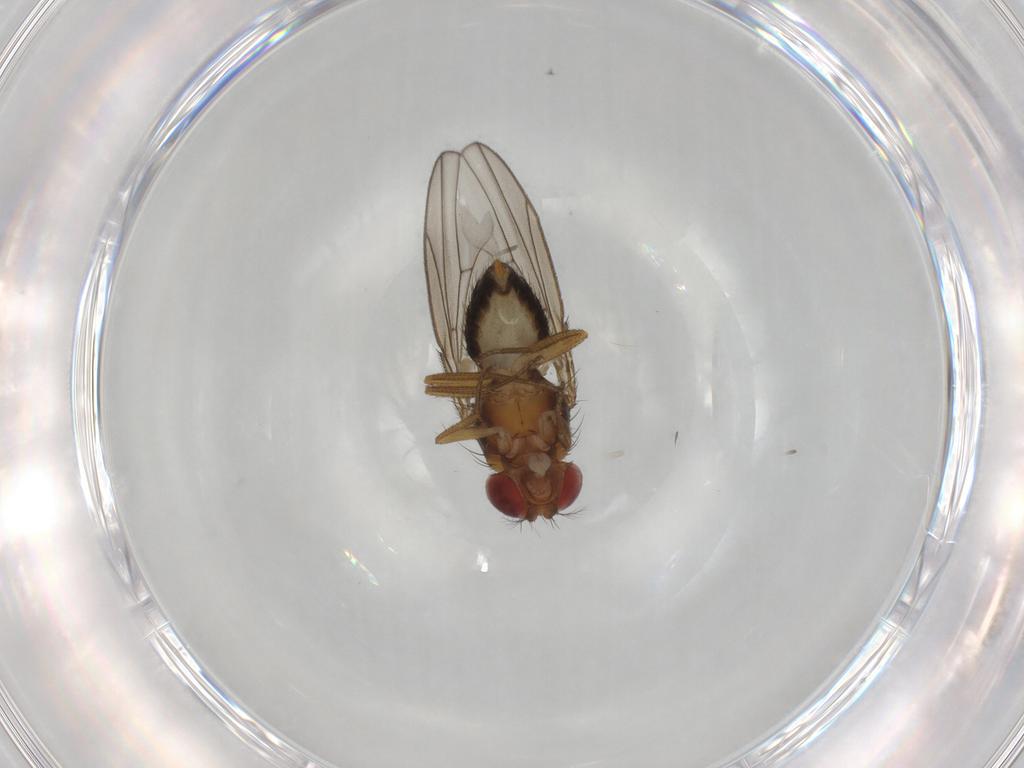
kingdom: Animalia
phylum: Arthropoda
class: Insecta
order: Diptera
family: Drosophilidae
